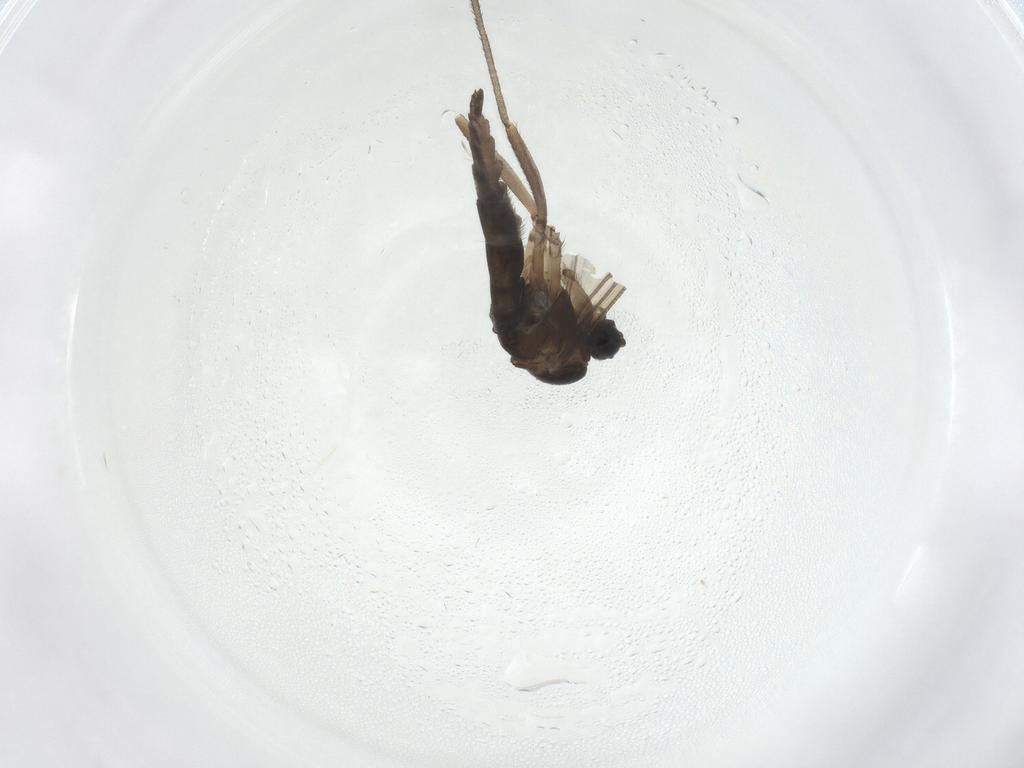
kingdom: Animalia
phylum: Arthropoda
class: Insecta
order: Diptera
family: Sciaridae
